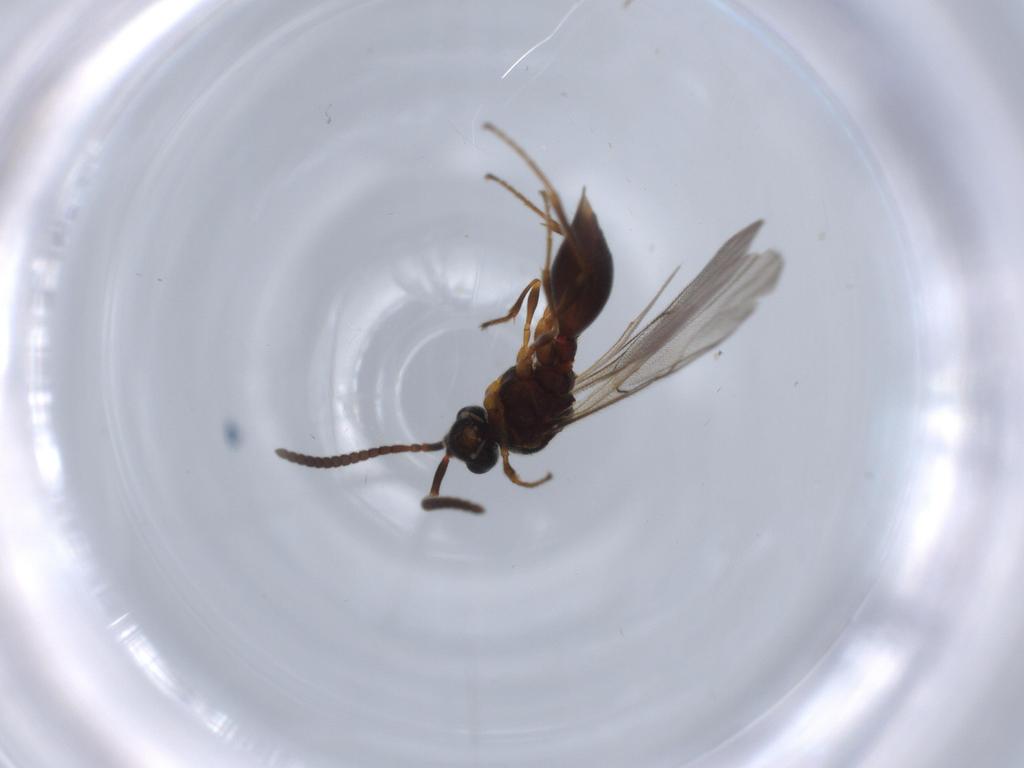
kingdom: Animalia
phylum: Arthropoda
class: Insecta
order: Hymenoptera
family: Diapriidae
